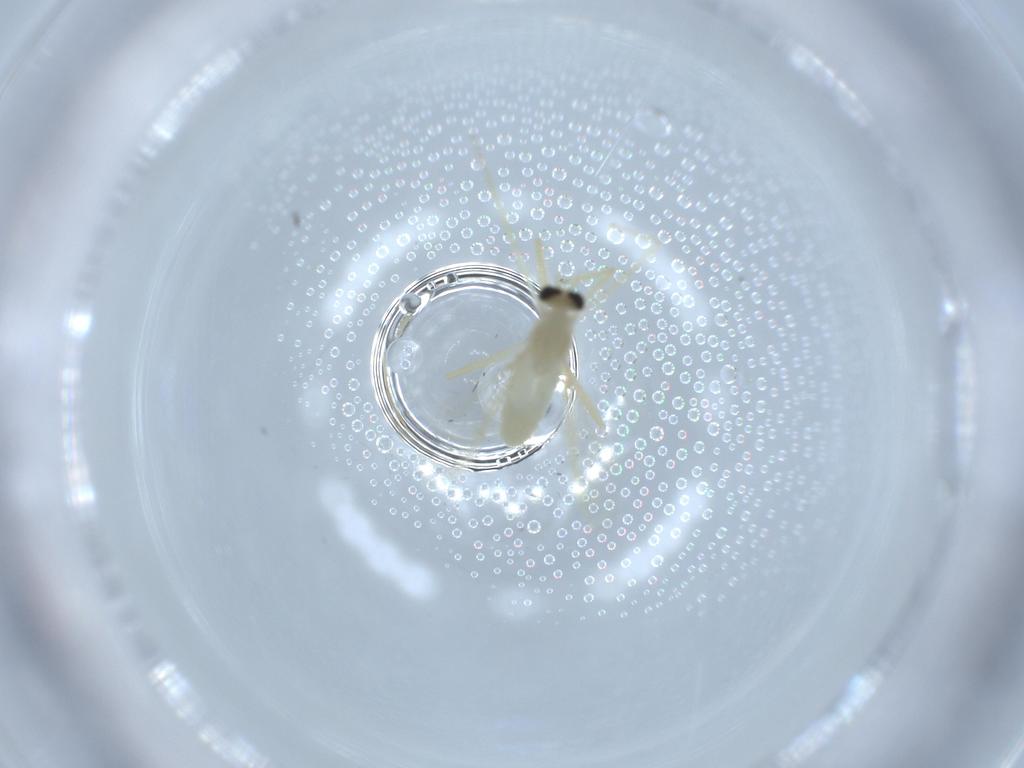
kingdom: Animalia
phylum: Arthropoda
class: Insecta
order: Diptera
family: Chironomidae
